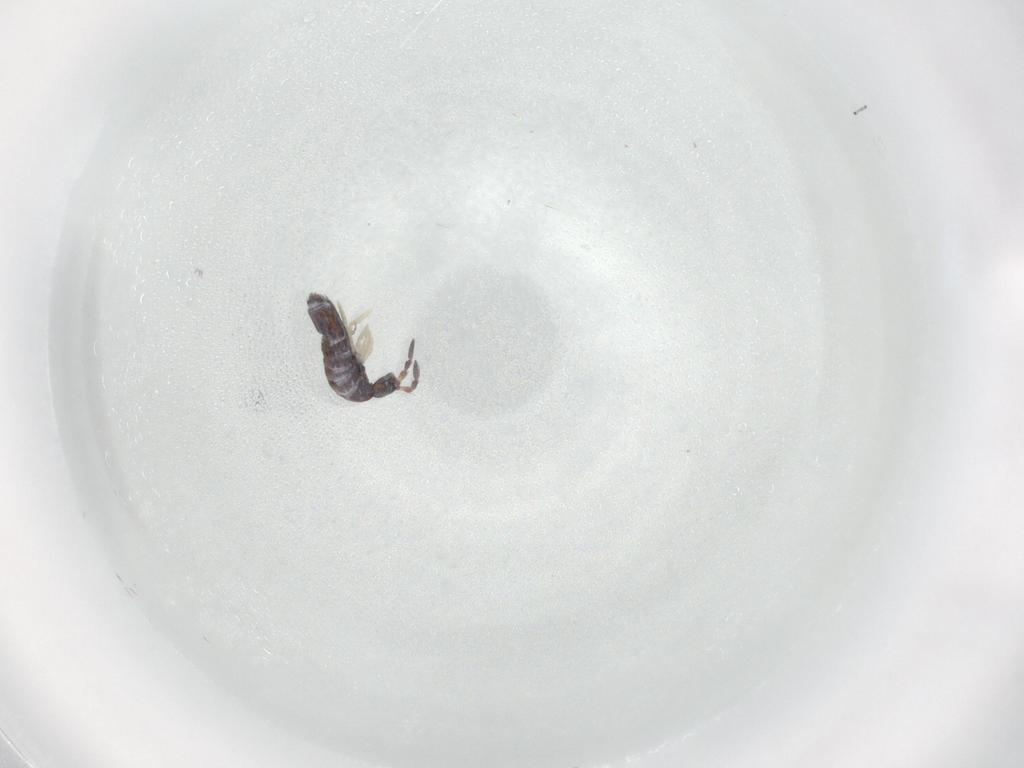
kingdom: Animalia
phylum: Arthropoda
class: Collembola
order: Entomobryomorpha
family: Entomobryidae
